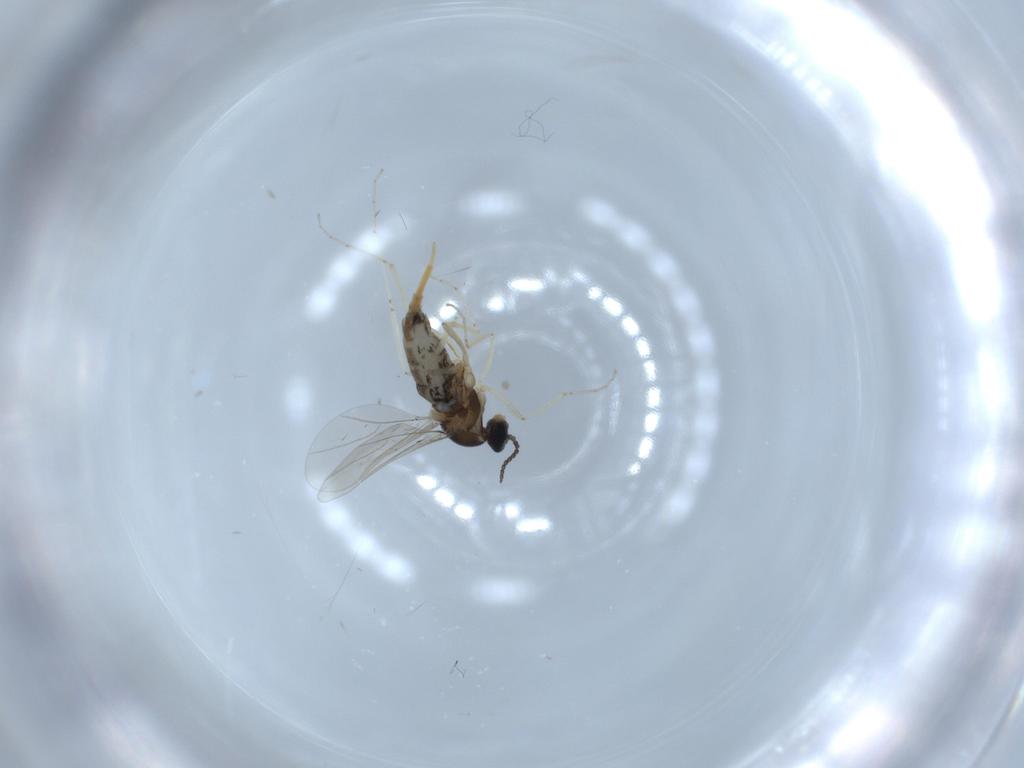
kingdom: Animalia
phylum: Arthropoda
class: Insecta
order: Diptera
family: Cecidomyiidae
